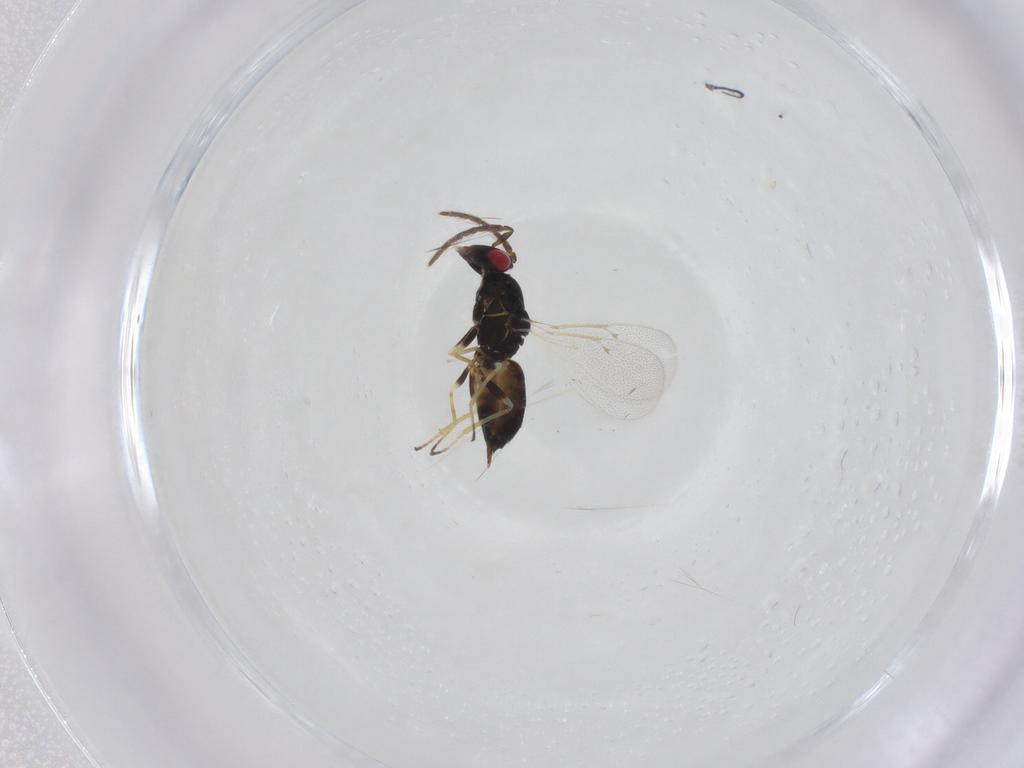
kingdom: Animalia
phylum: Arthropoda
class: Insecta
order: Hymenoptera
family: Eulophidae
